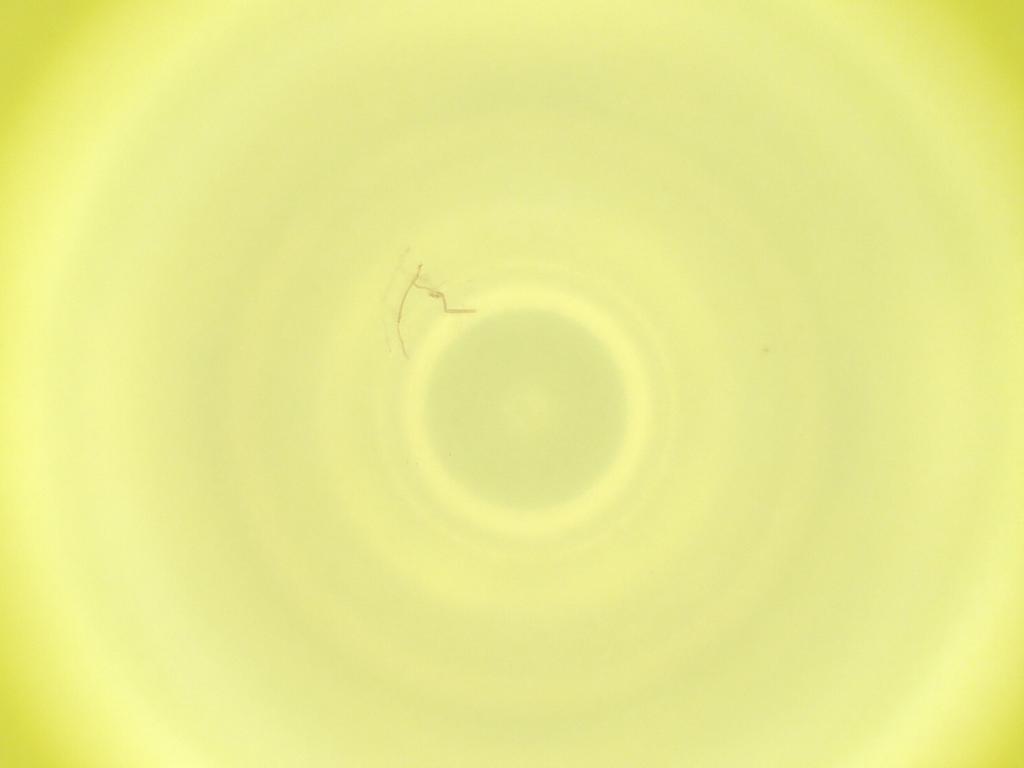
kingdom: Animalia
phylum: Arthropoda
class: Insecta
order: Diptera
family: Cecidomyiidae
